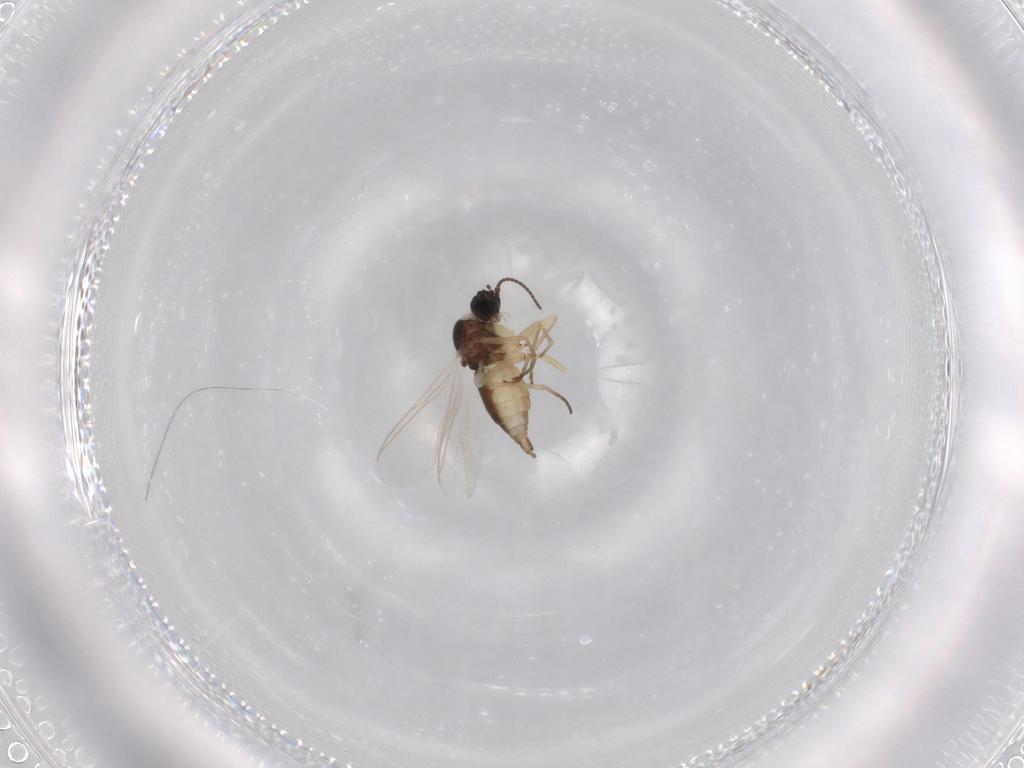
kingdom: Animalia
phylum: Arthropoda
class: Insecta
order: Diptera
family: Sciaridae
